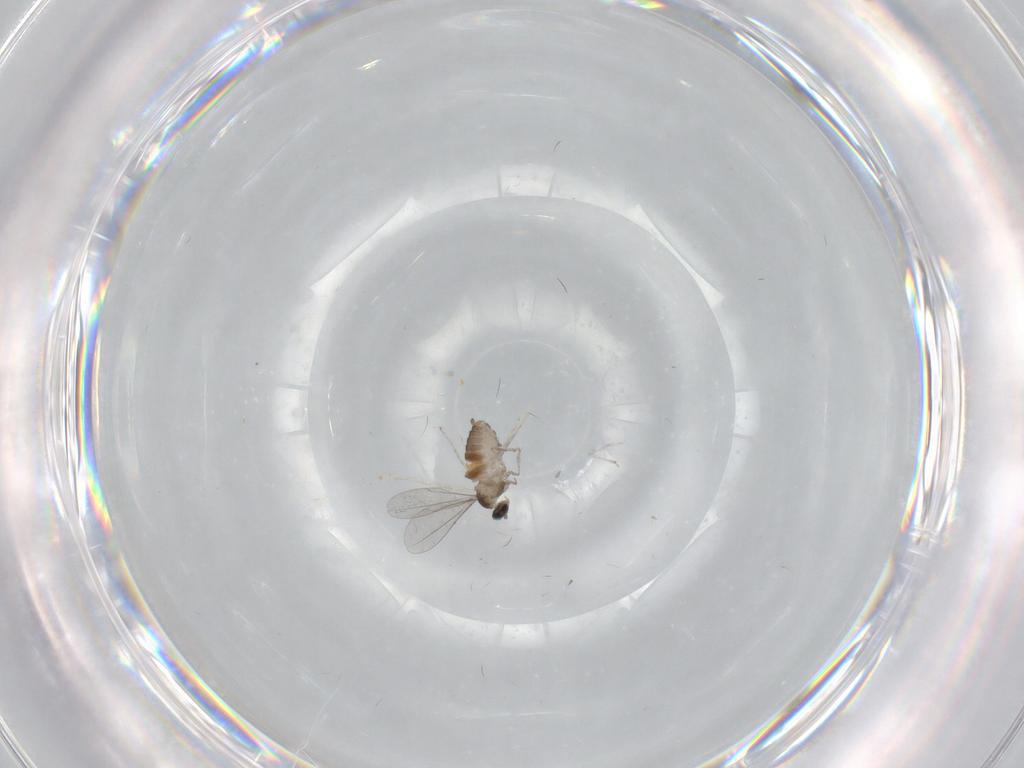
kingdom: Animalia
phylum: Arthropoda
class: Insecta
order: Diptera
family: Cecidomyiidae
